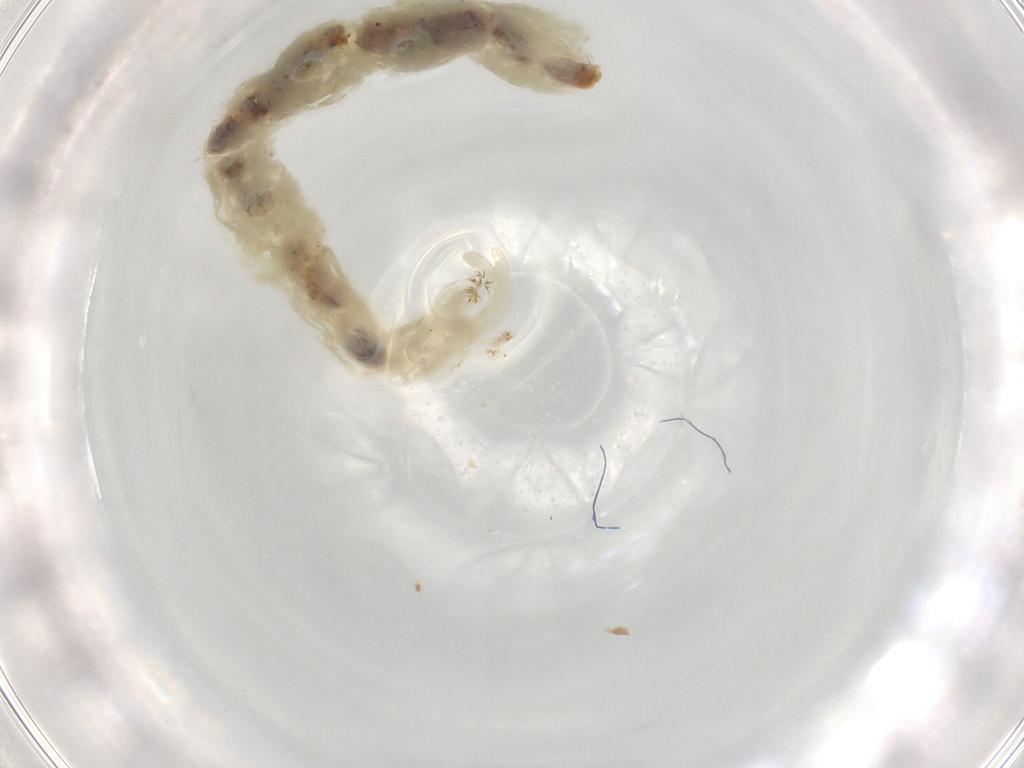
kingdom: Animalia
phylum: Arthropoda
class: Insecta
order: Diptera
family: Chironomidae
